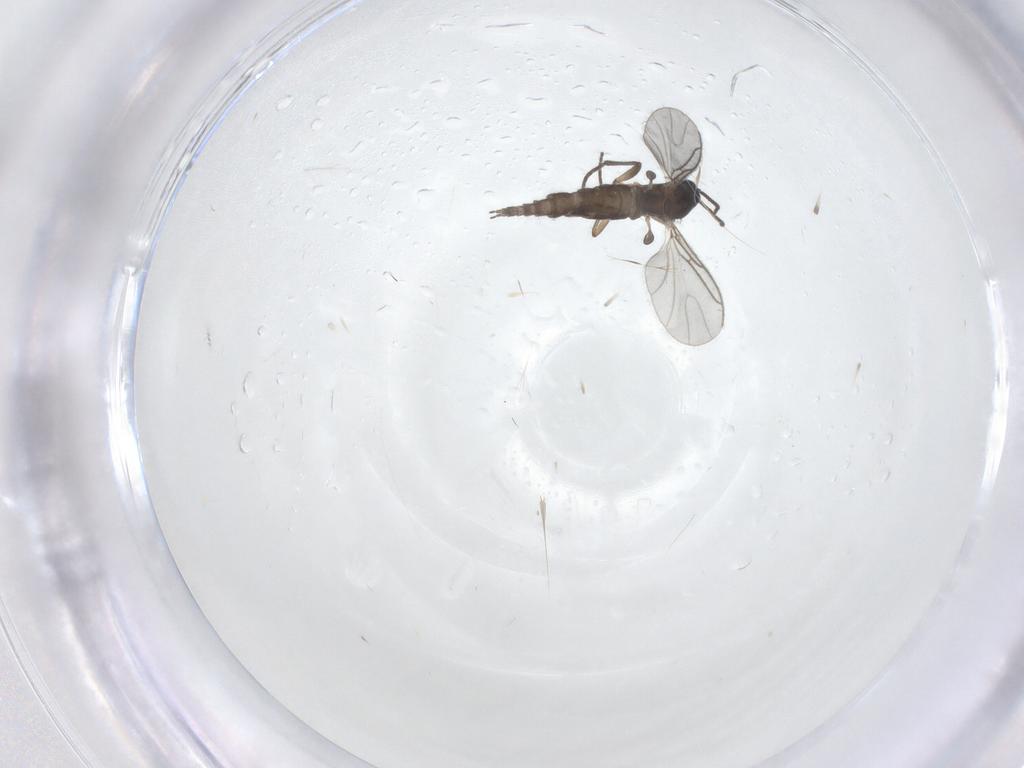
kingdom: Animalia
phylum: Arthropoda
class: Insecta
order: Diptera
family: Sciaridae
